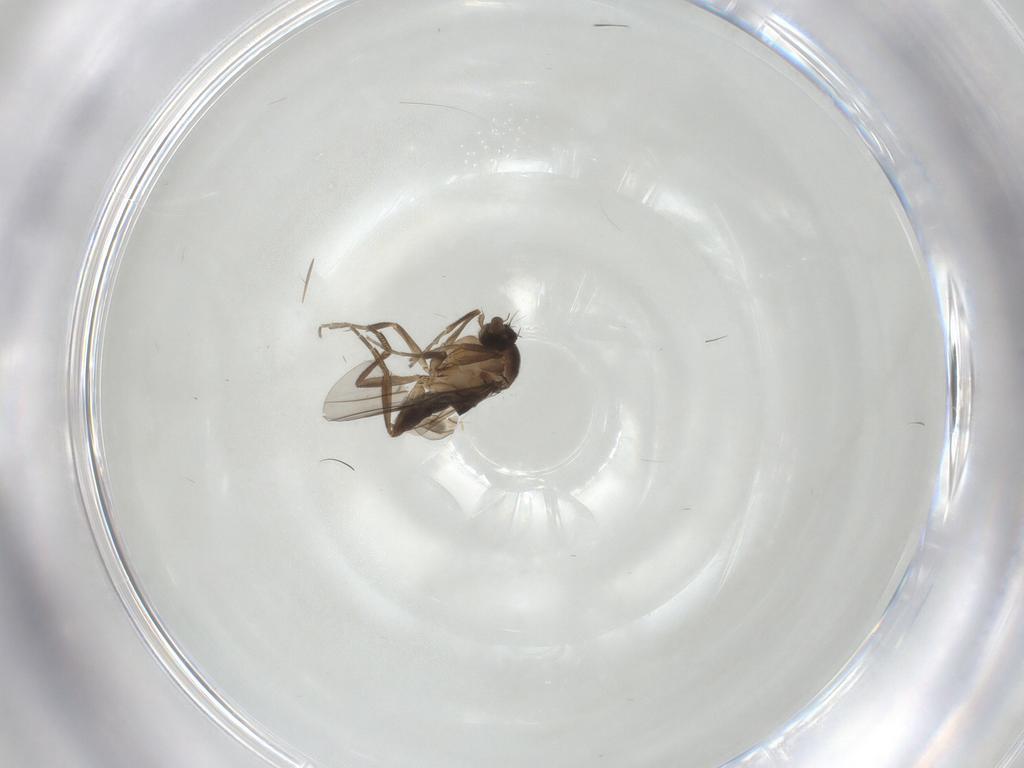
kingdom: Animalia
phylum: Arthropoda
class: Insecta
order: Diptera
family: Phoridae
